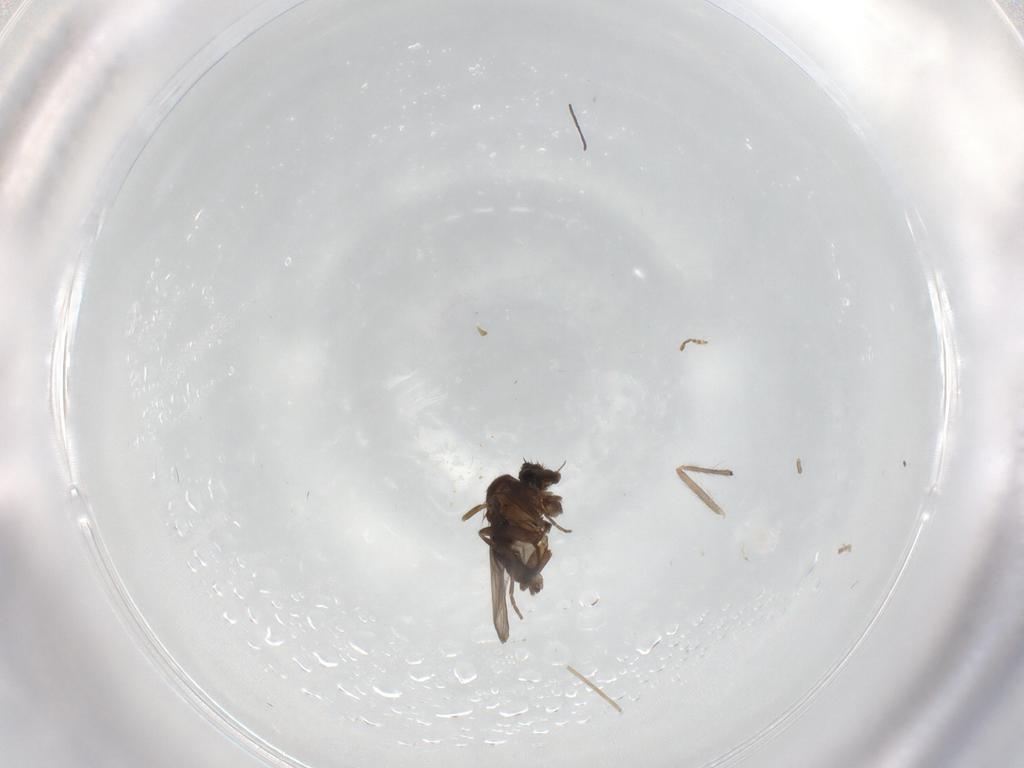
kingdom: Animalia
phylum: Arthropoda
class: Insecta
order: Diptera
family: Chironomidae
